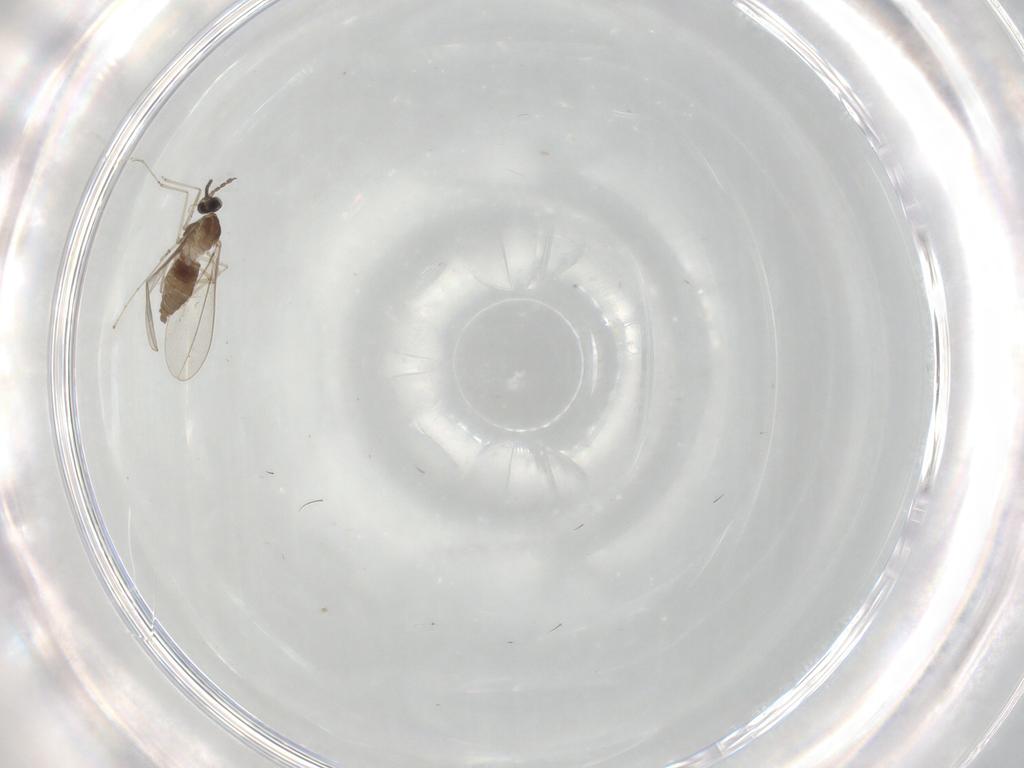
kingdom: Animalia
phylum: Arthropoda
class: Insecta
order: Diptera
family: Cecidomyiidae
